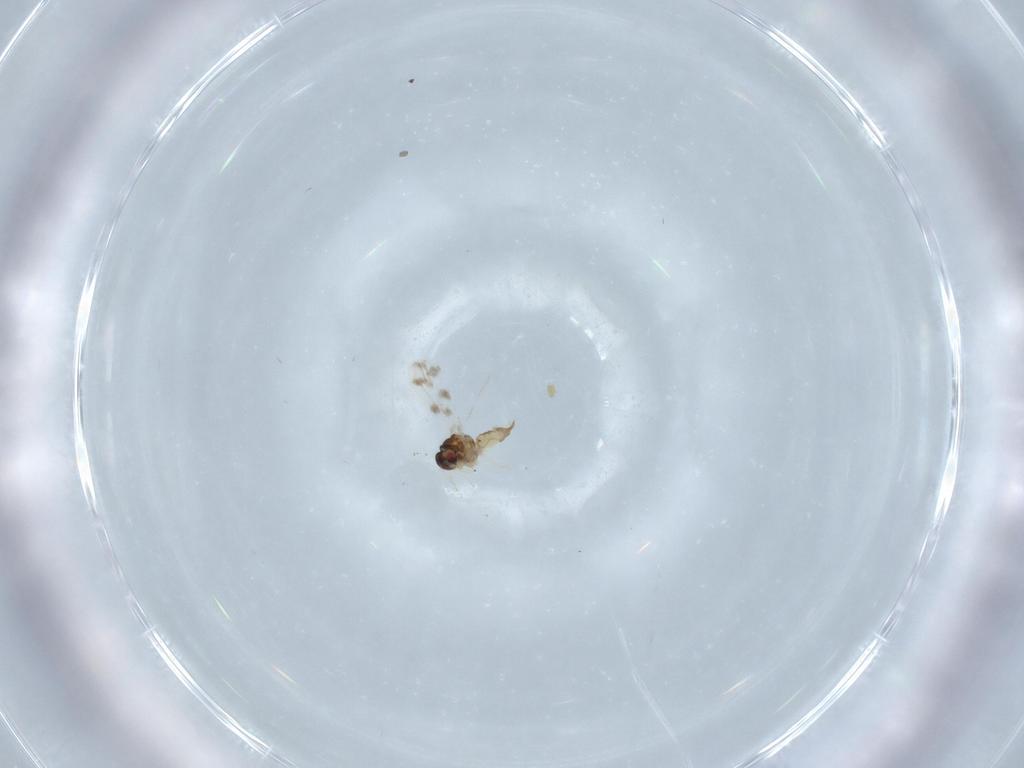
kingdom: Animalia
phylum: Arthropoda
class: Insecta
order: Hemiptera
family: Aleyrodidae
